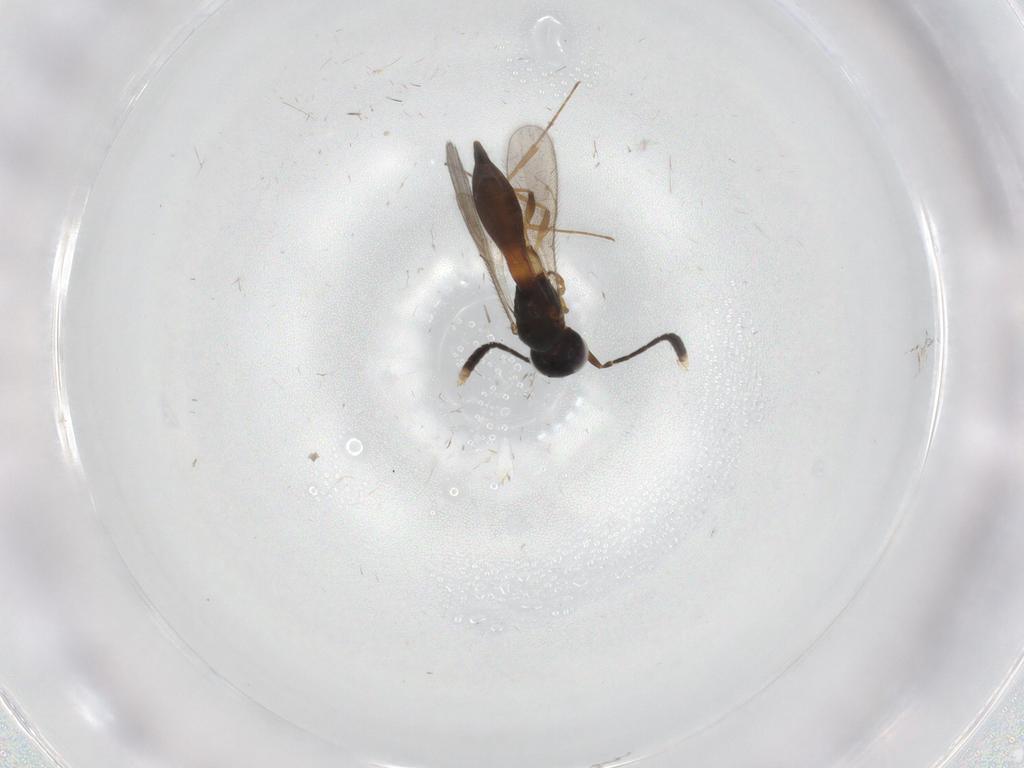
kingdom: Animalia
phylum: Arthropoda
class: Insecta
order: Hymenoptera
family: Scelionidae
